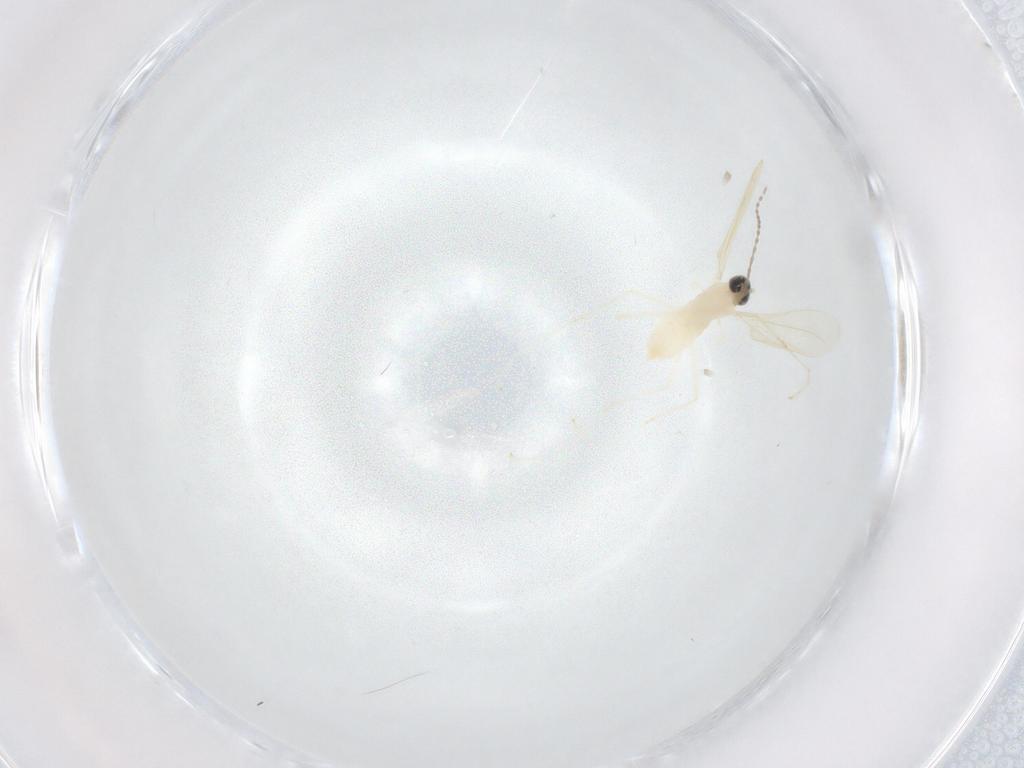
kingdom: Animalia
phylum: Arthropoda
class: Insecta
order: Diptera
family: Cecidomyiidae
